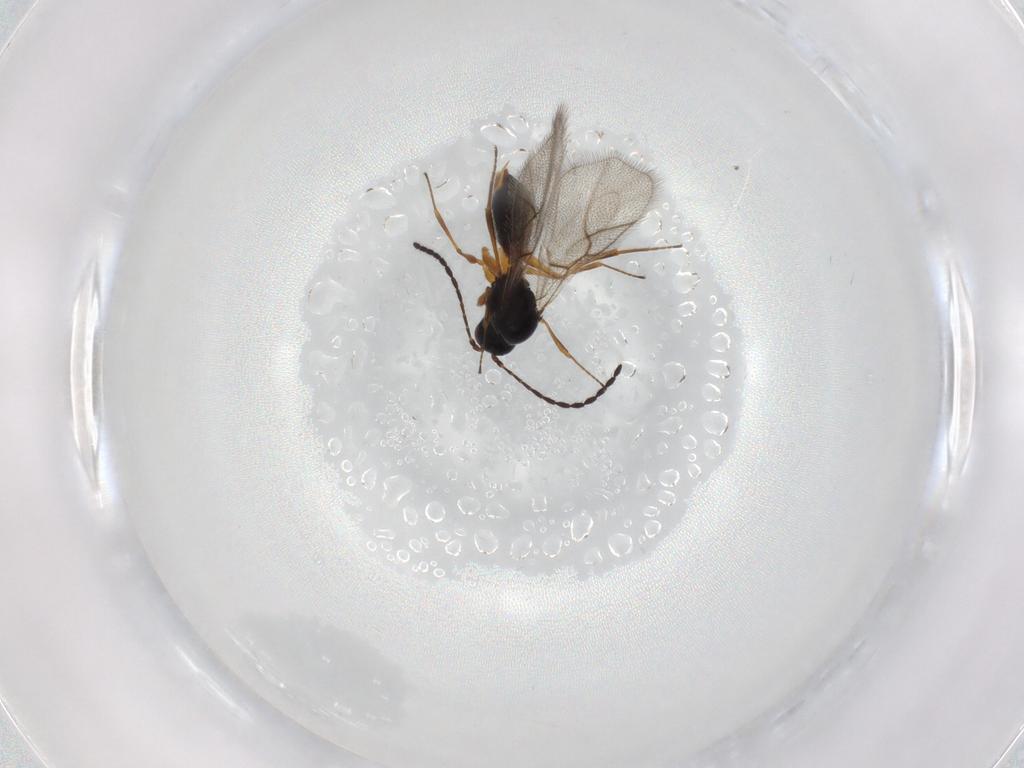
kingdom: Animalia
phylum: Arthropoda
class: Insecta
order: Hymenoptera
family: Figitidae
